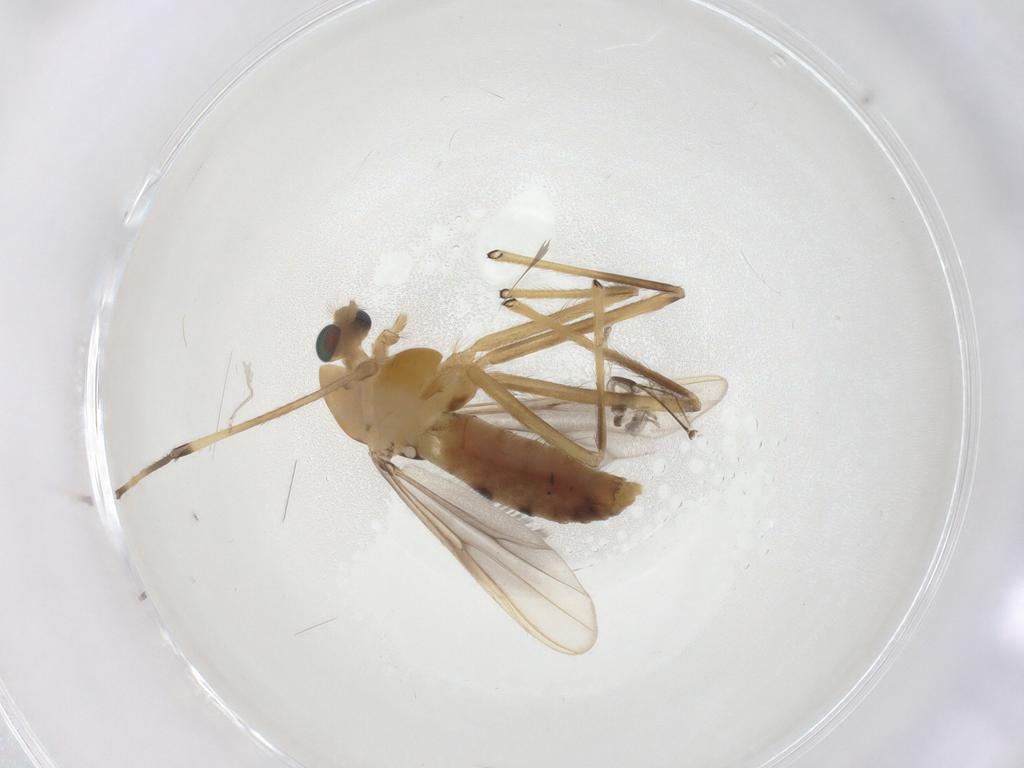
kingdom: Animalia
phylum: Arthropoda
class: Insecta
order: Diptera
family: Chironomidae
